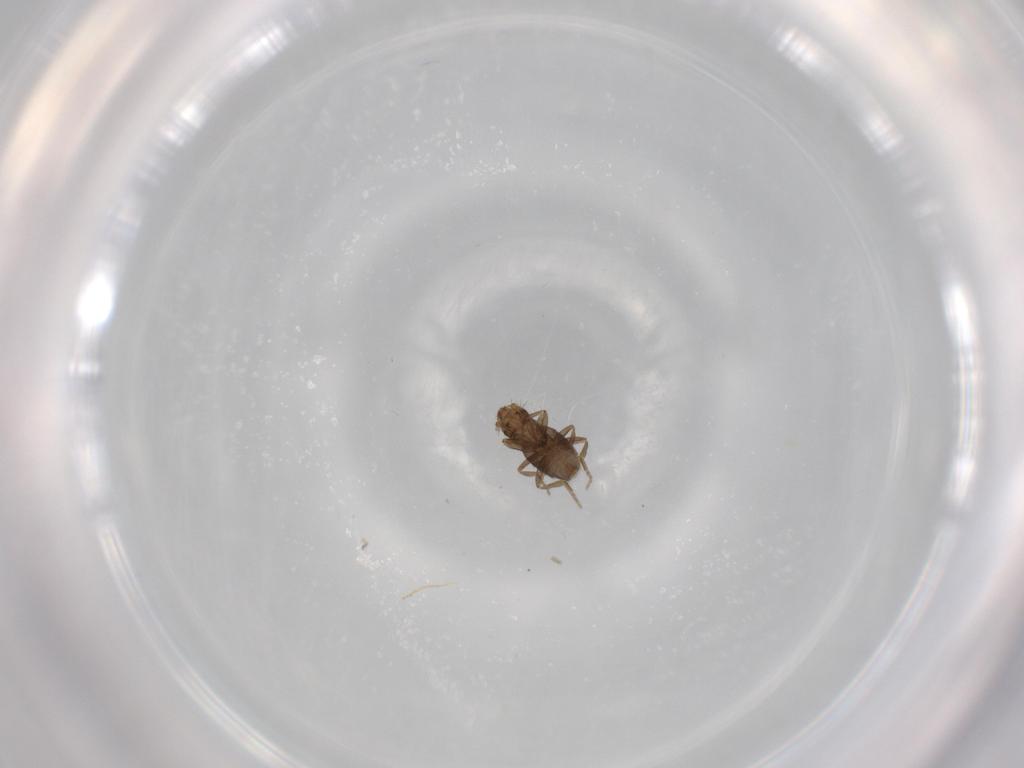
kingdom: Animalia
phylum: Arthropoda
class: Insecta
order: Diptera
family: Phoridae
